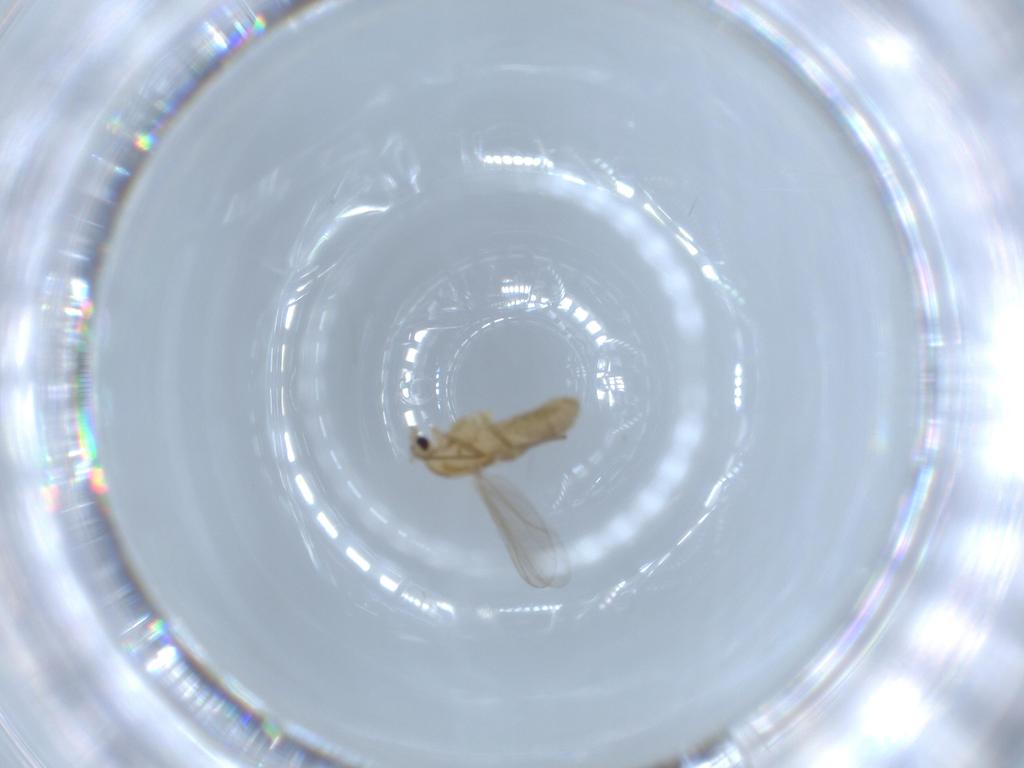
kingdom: Animalia
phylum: Arthropoda
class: Insecta
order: Diptera
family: Chironomidae
